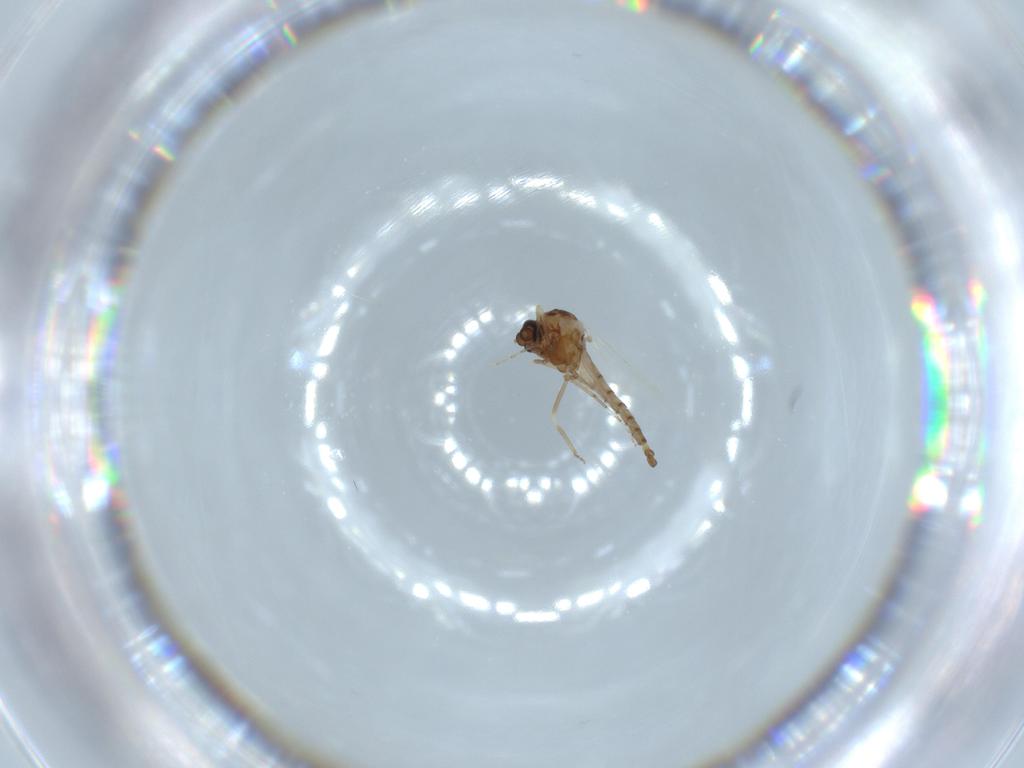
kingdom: Animalia
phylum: Arthropoda
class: Insecta
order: Diptera
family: Ceratopogonidae
